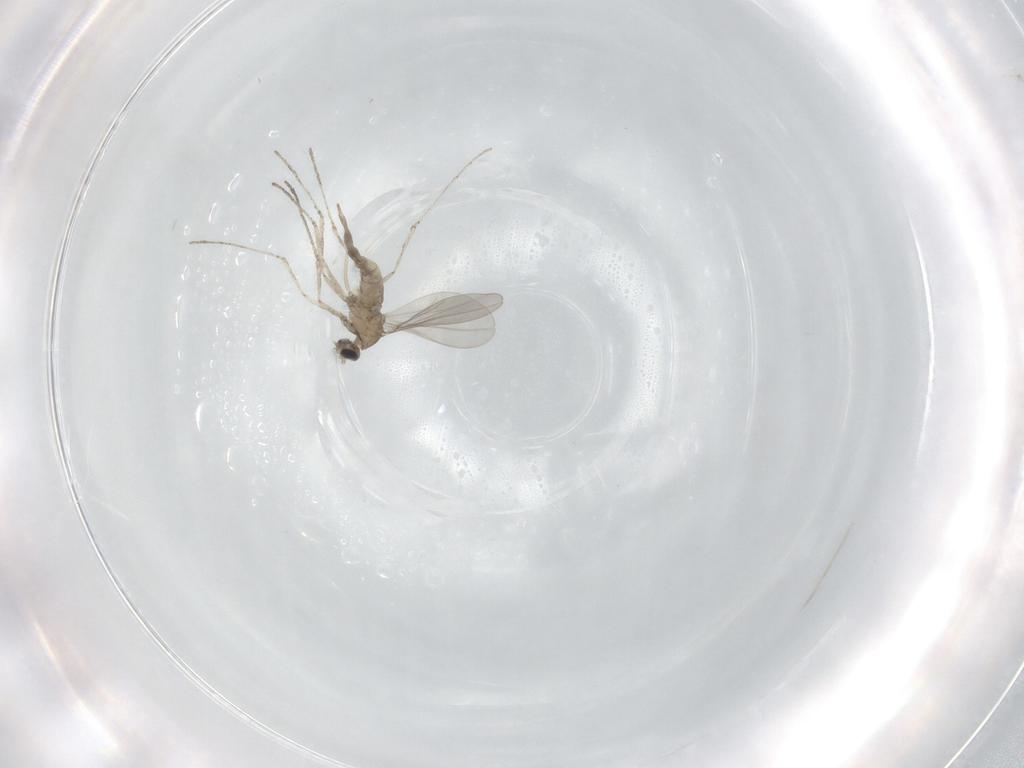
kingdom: Animalia
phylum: Arthropoda
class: Insecta
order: Diptera
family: Cecidomyiidae
